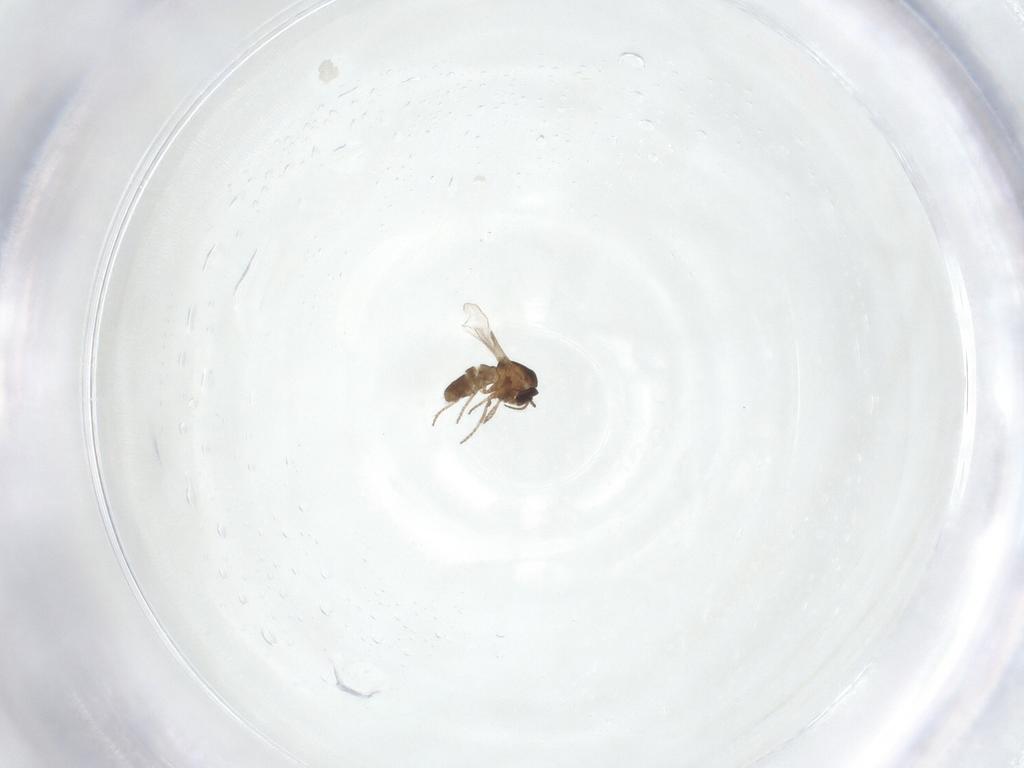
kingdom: Animalia
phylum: Arthropoda
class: Insecta
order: Diptera
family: Ceratopogonidae
